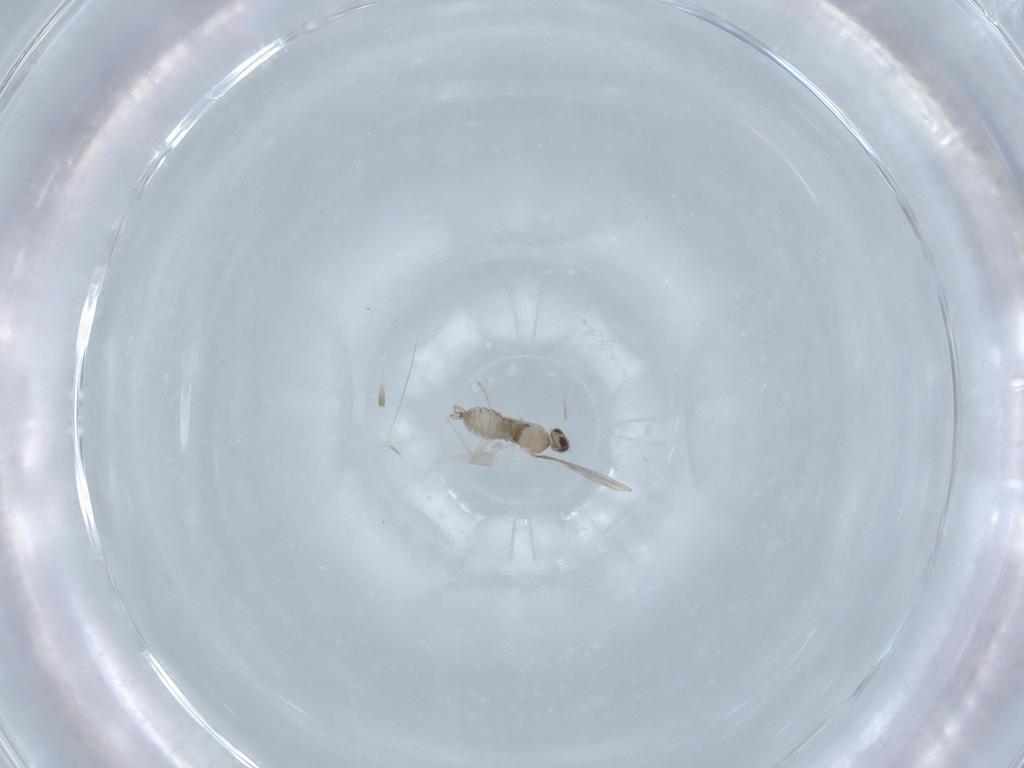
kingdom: Animalia
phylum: Arthropoda
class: Insecta
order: Diptera
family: Cecidomyiidae
